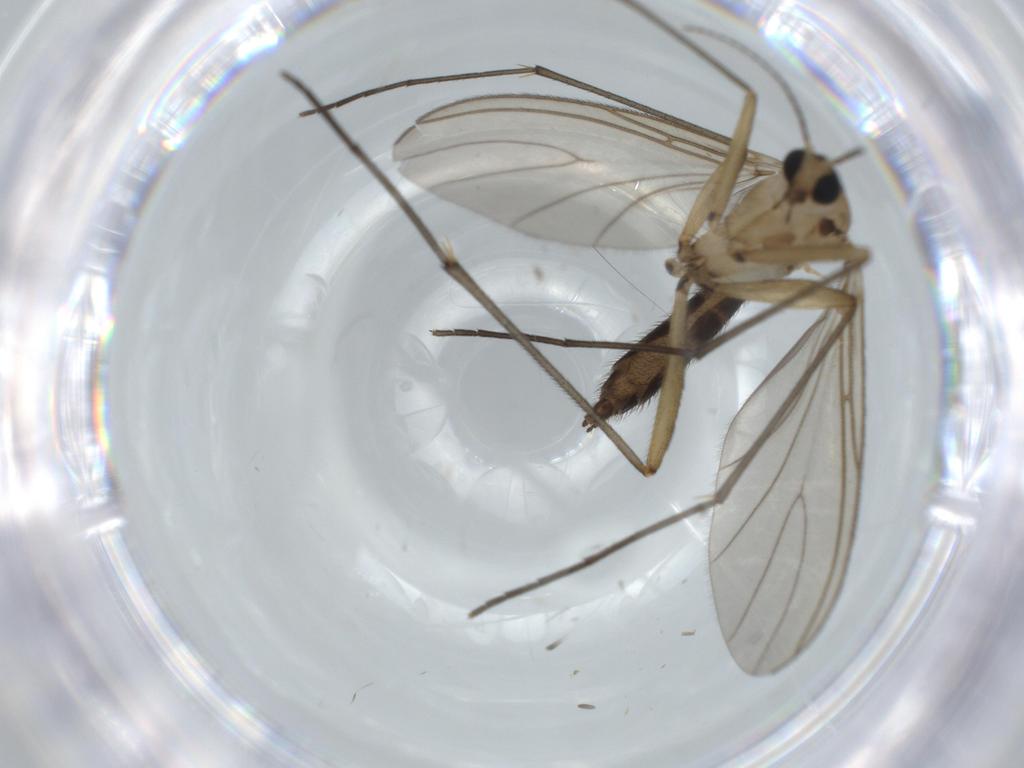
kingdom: Animalia
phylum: Arthropoda
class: Insecta
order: Diptera
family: Sciaridae
